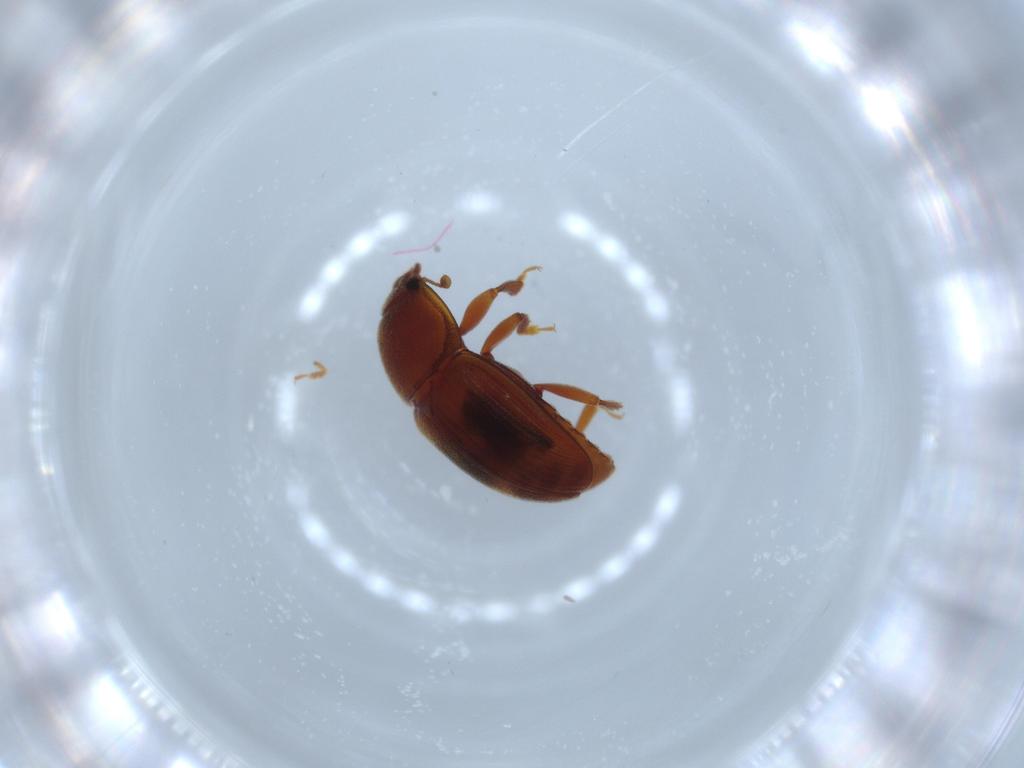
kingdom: Animalia
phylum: Arthropoda
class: Insecta
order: Coleoptera
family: Nitidulidae
